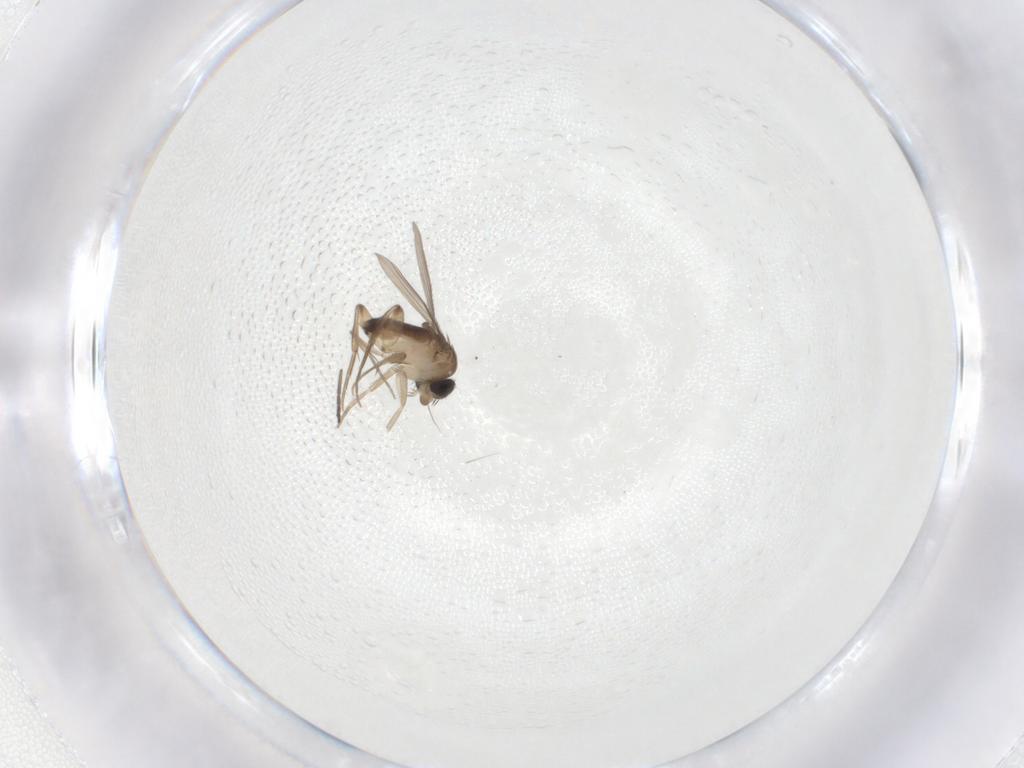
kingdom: Animalia
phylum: Arthropoda
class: Insecta
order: Diptera
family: Phoridae
